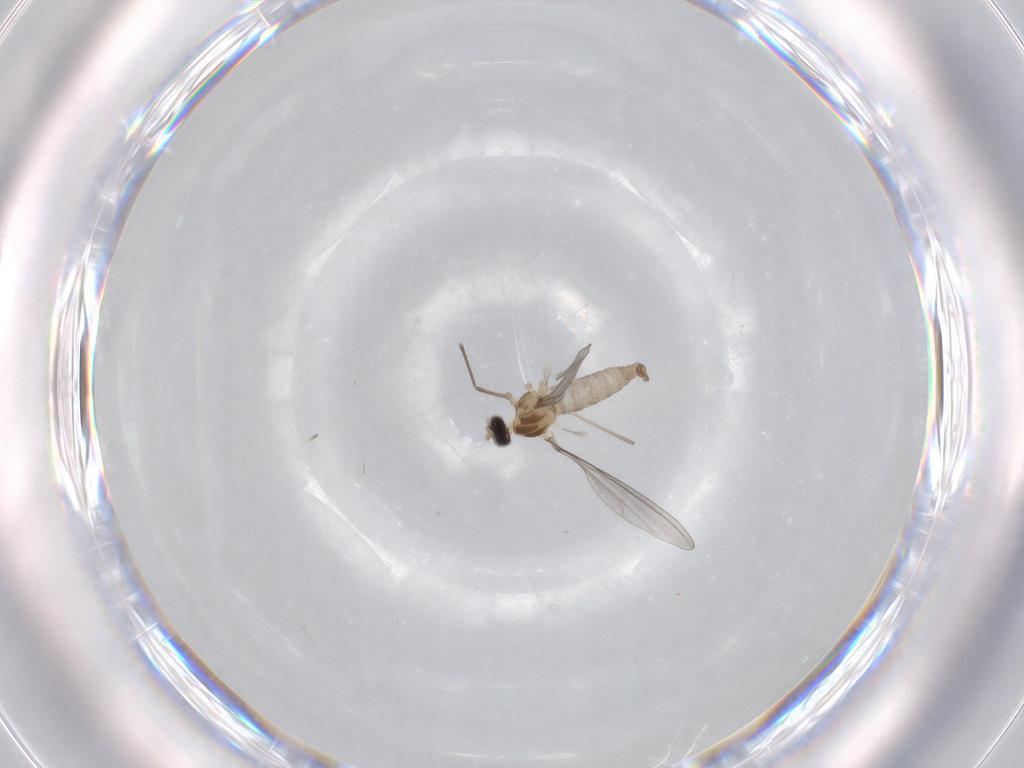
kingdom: Animalia
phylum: Arthropoda
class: Insecta
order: Diptera
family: Cecidomyiidae
